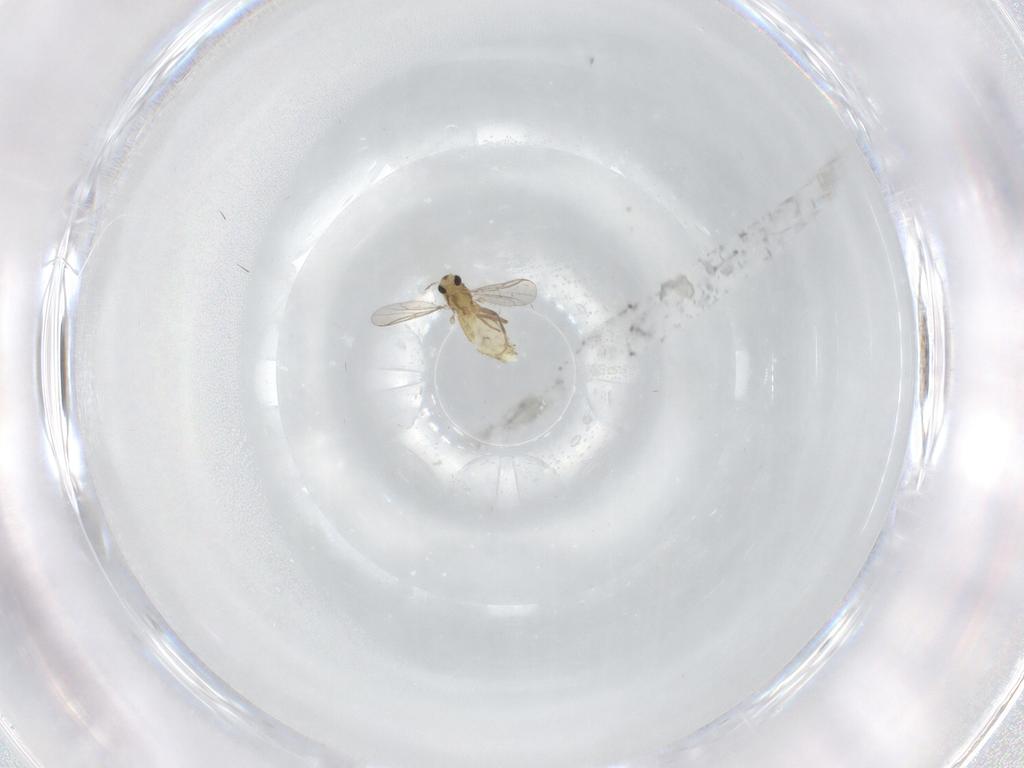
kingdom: Animalia
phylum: Arthropoda
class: Insecta
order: Diptera
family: Chironomidae
